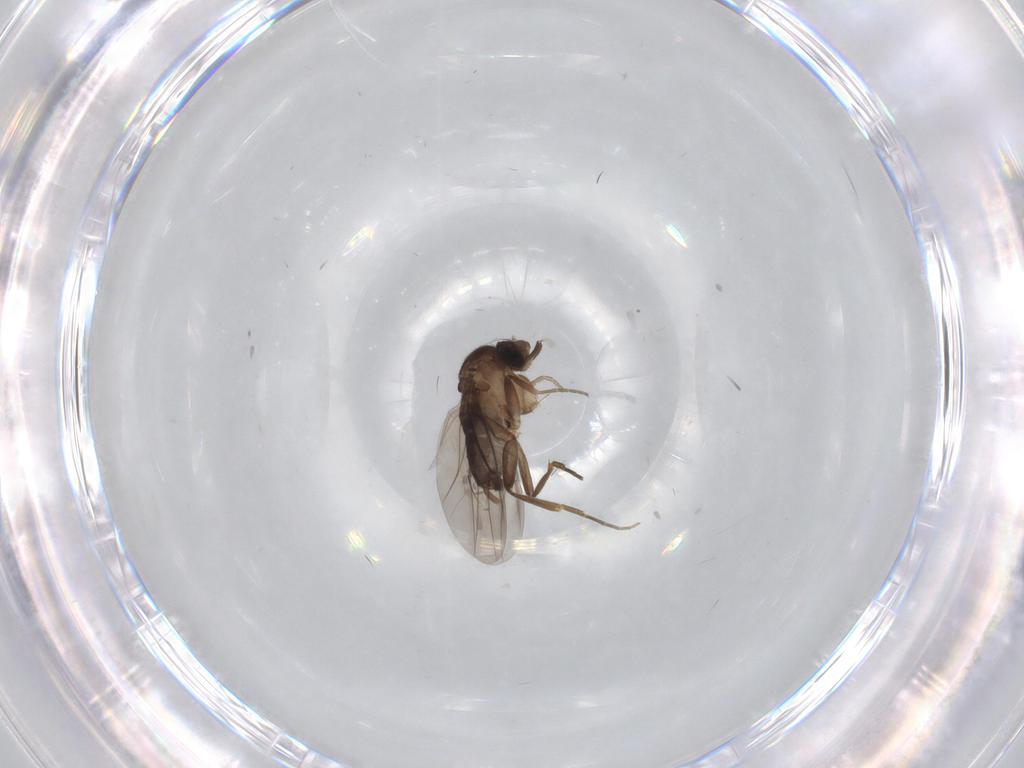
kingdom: Animalia
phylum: Arthropoda
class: Insecta
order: Diptera
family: Phoridae
